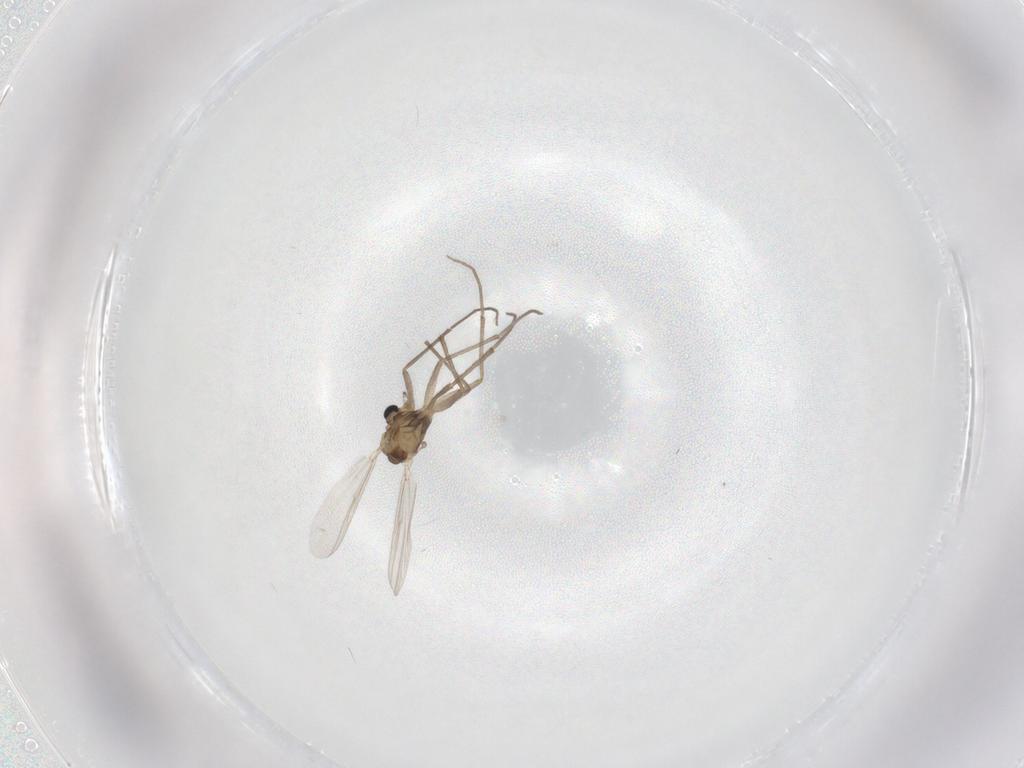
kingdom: Animalia
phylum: Arthropoda
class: Insecta
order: Diptera
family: Chironomidae
